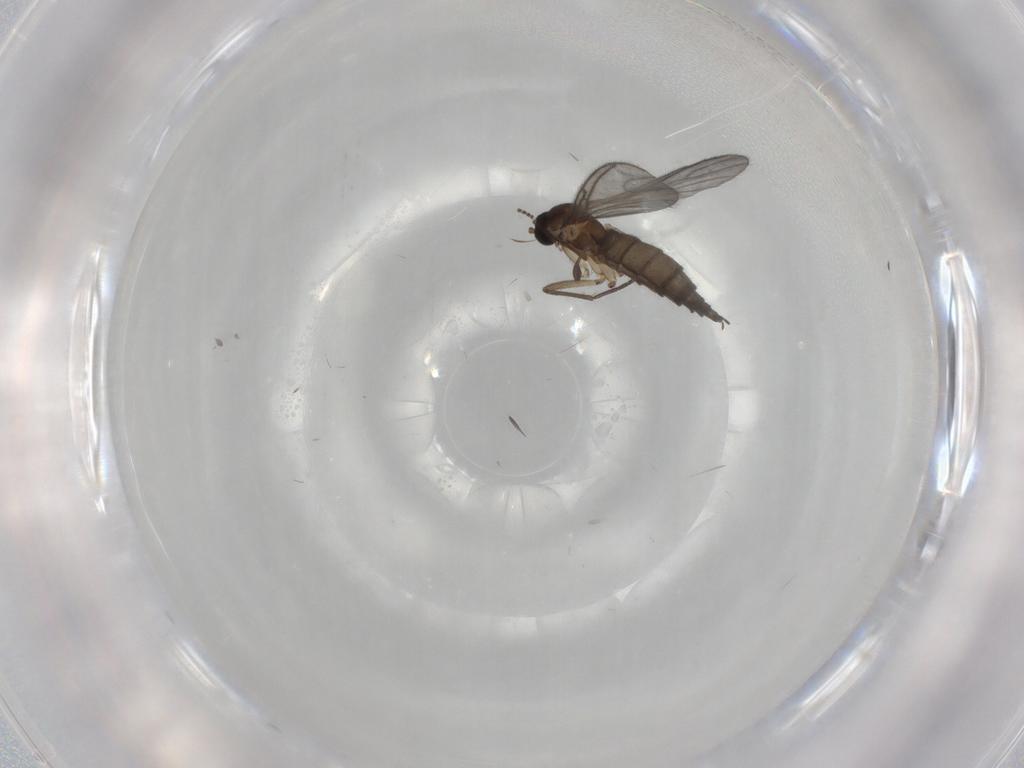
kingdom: Animalia
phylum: Arthropoda
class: Insecta
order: Diptera
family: Sciaridae
